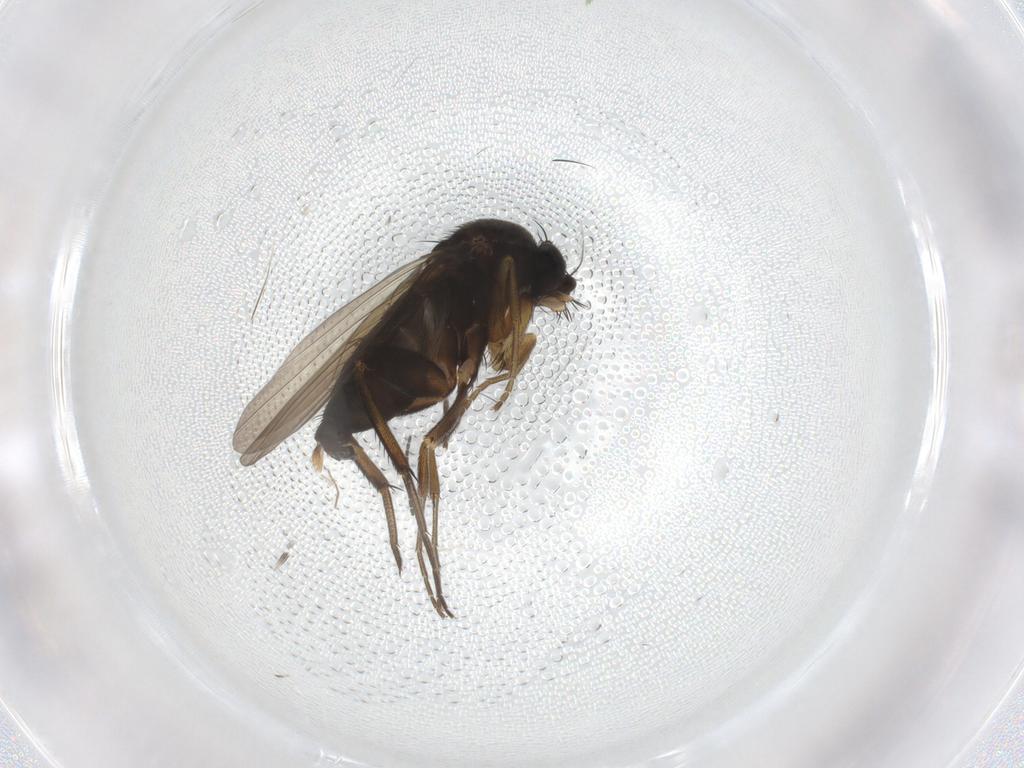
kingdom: Animalia
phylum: Arthropoda
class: Insecta
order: Diptera
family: Phoridae
